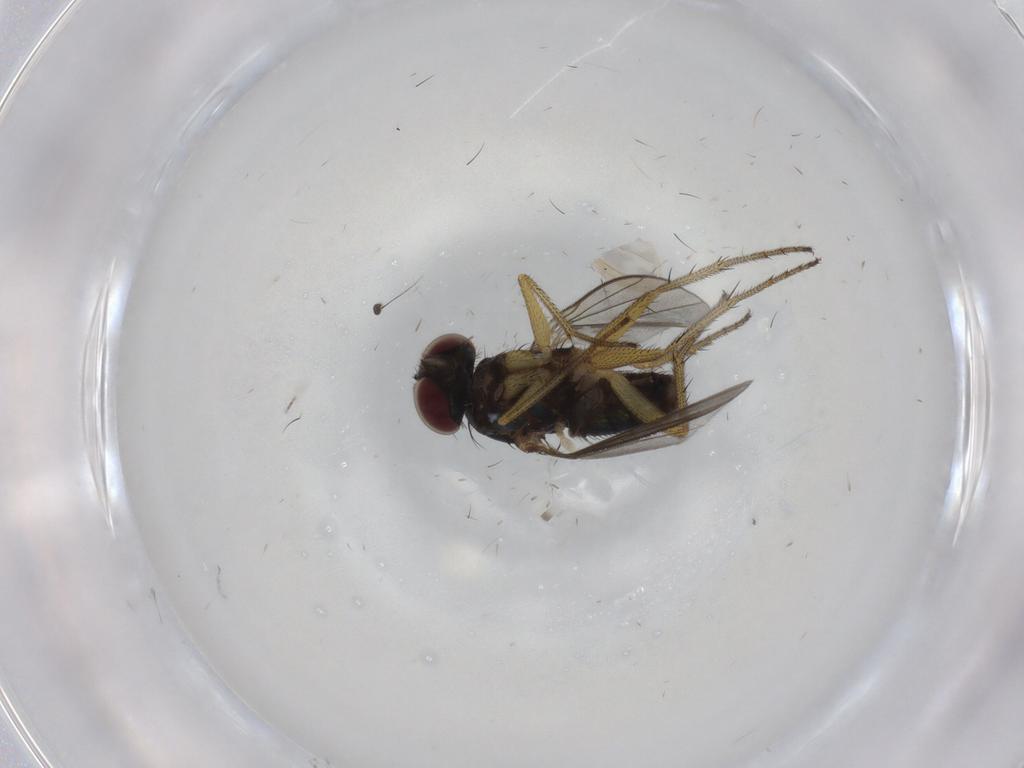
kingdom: Animalia
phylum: Arthropoda
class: Insecta
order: Diptera
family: Dolichopodidae
